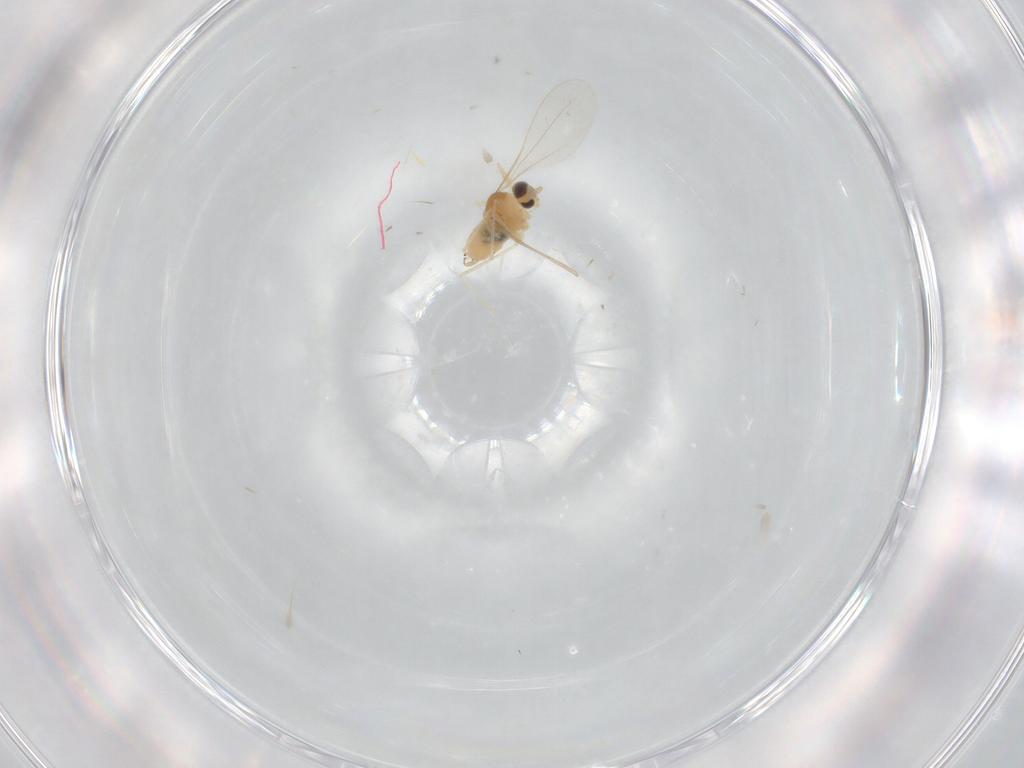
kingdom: Animalia
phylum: Arthropoda
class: Insecta
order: Diptera
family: Cecidomyiidae
